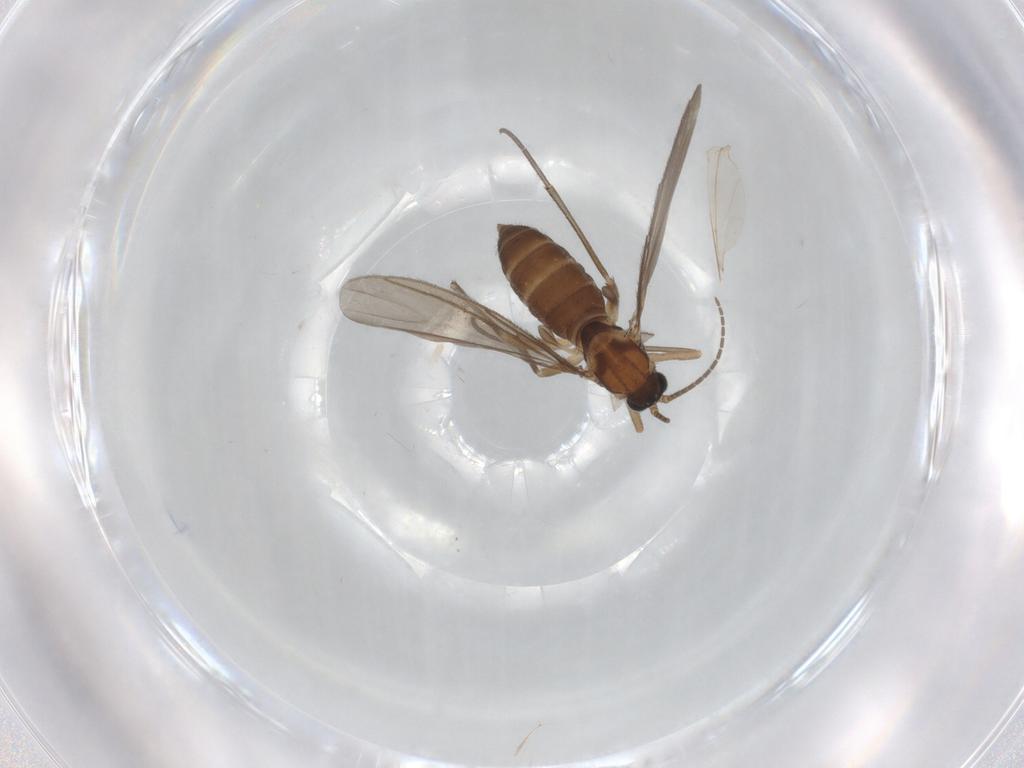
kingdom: Animalia
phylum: Arthropoda
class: Insecta
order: Diptera
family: Sciaridae
